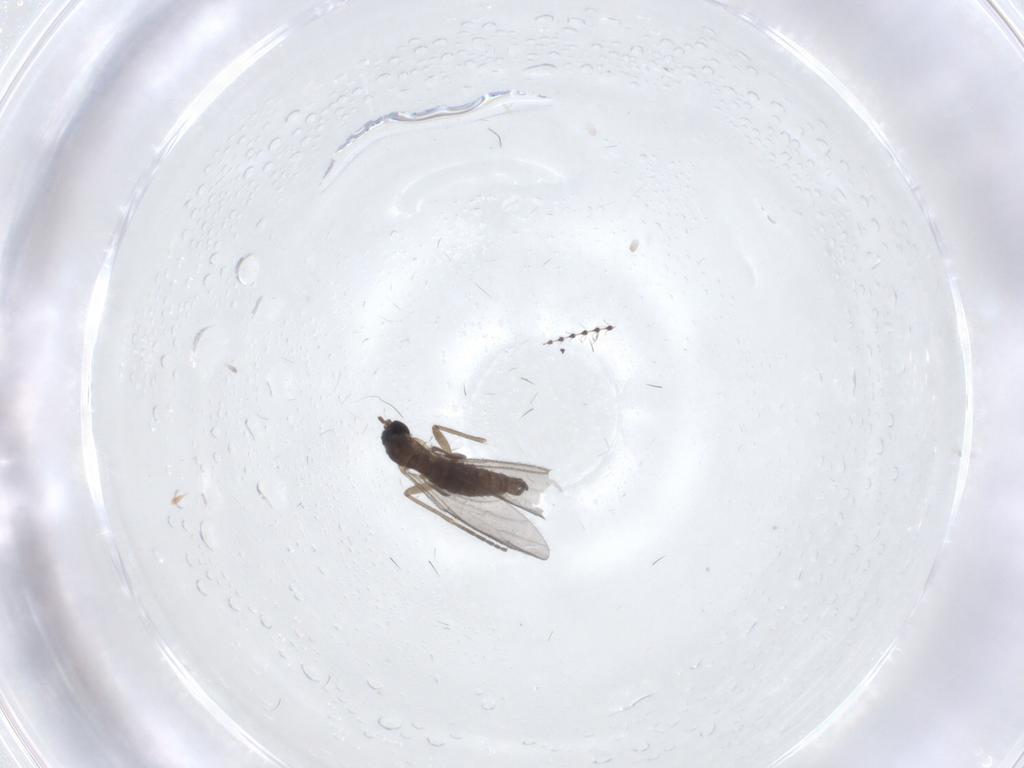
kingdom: Animalia
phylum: Arthropoda
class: Insecta
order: Diptera
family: Sciaridae
